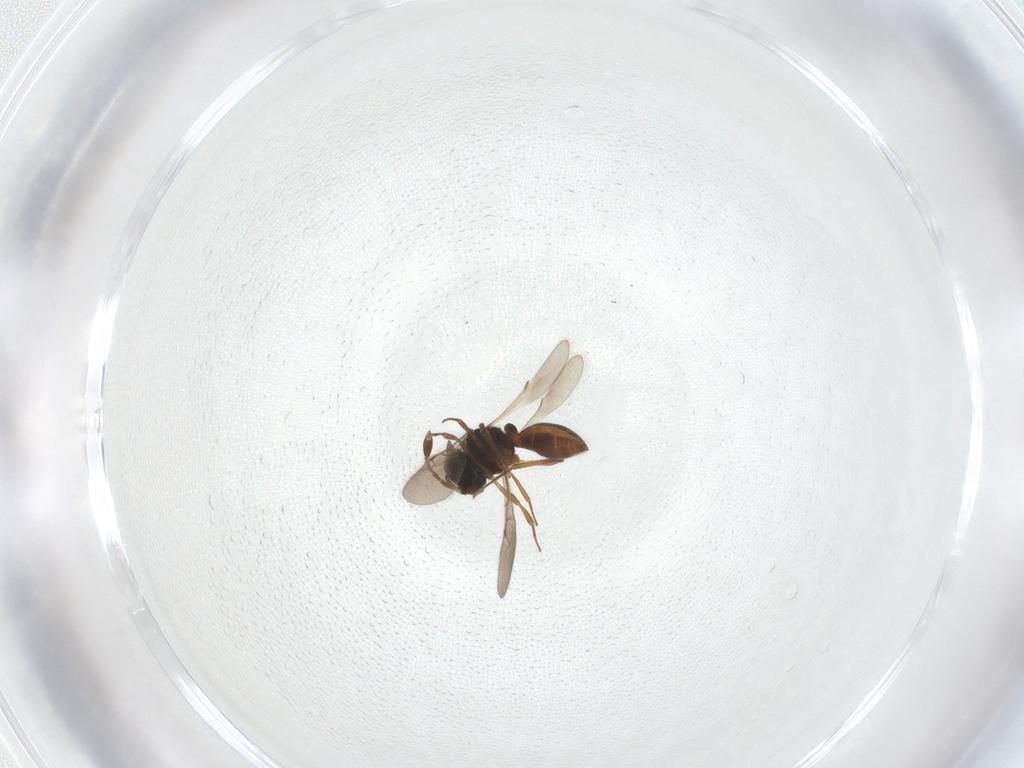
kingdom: Animalia
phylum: Arthropoda
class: Insecta
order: Hymenoptera
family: Scelionidae
